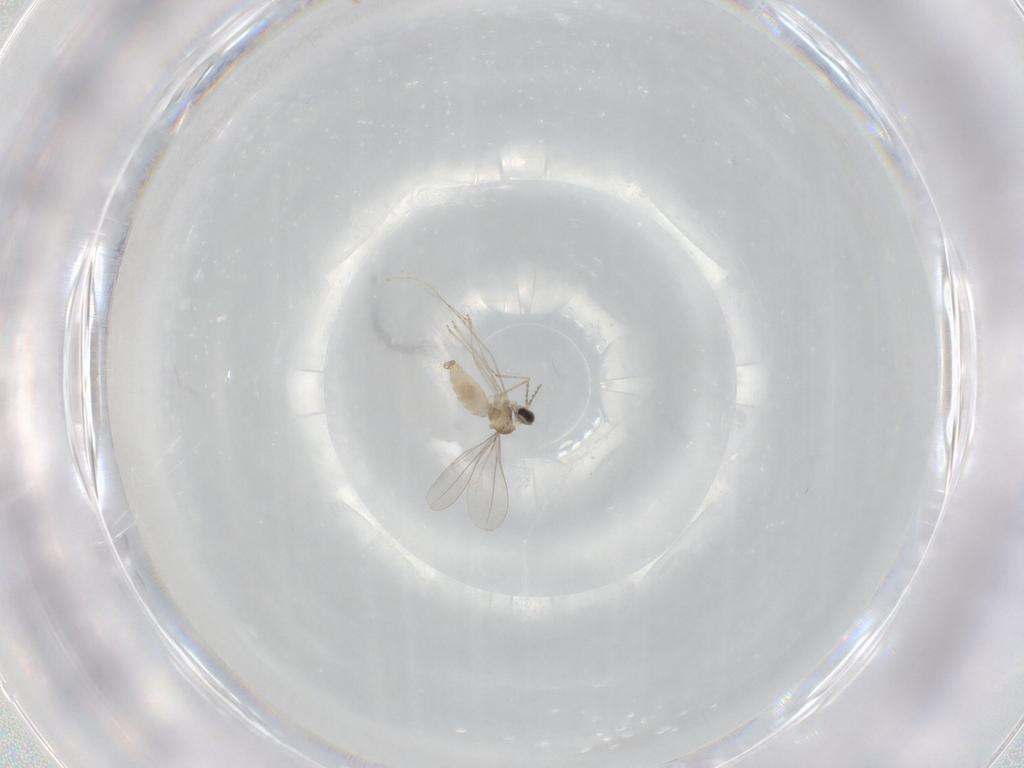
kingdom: Animalia
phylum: Arthropoda
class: Insecta
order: Diptera
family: Cecidomyiidae
